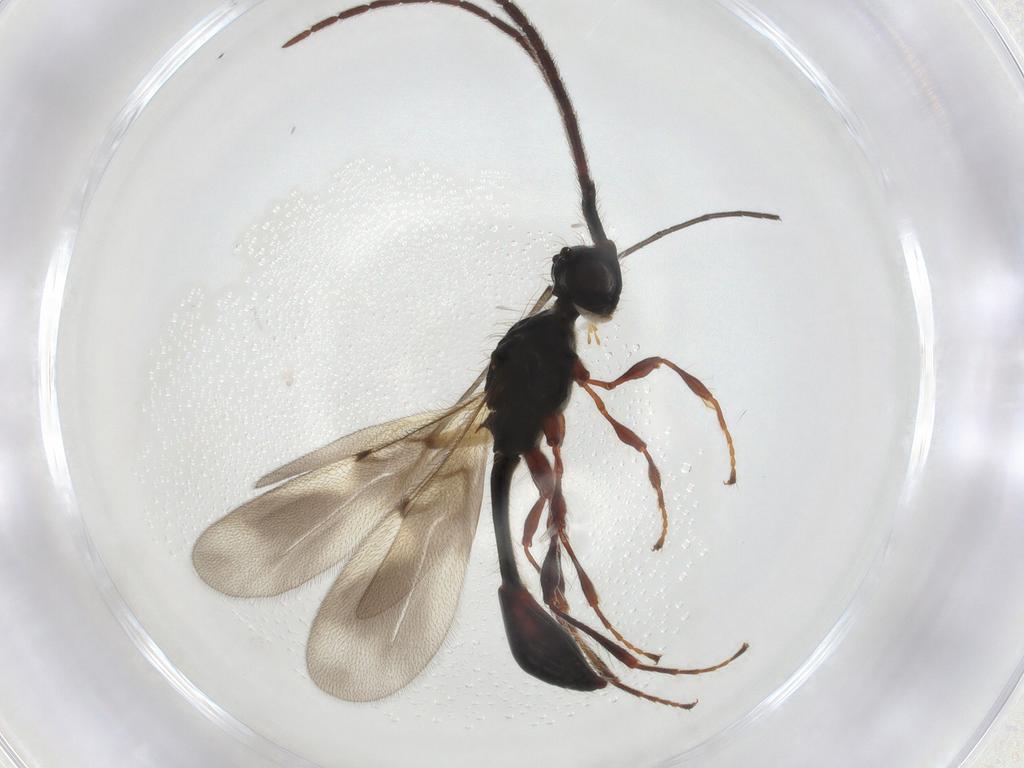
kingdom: Animalia
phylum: Arthropoda
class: Insecta
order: Hymenoptera
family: Diapriidae
